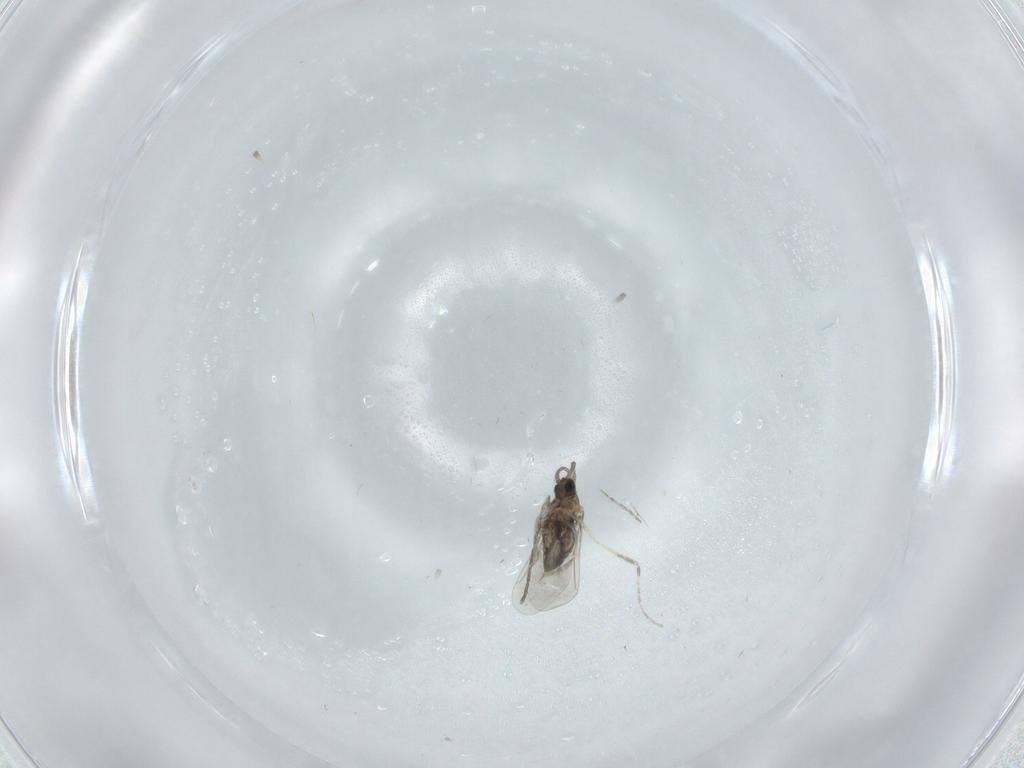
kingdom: Animalia
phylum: Arthropoda
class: Insecta
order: Diptera
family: Cecidomyiidae
